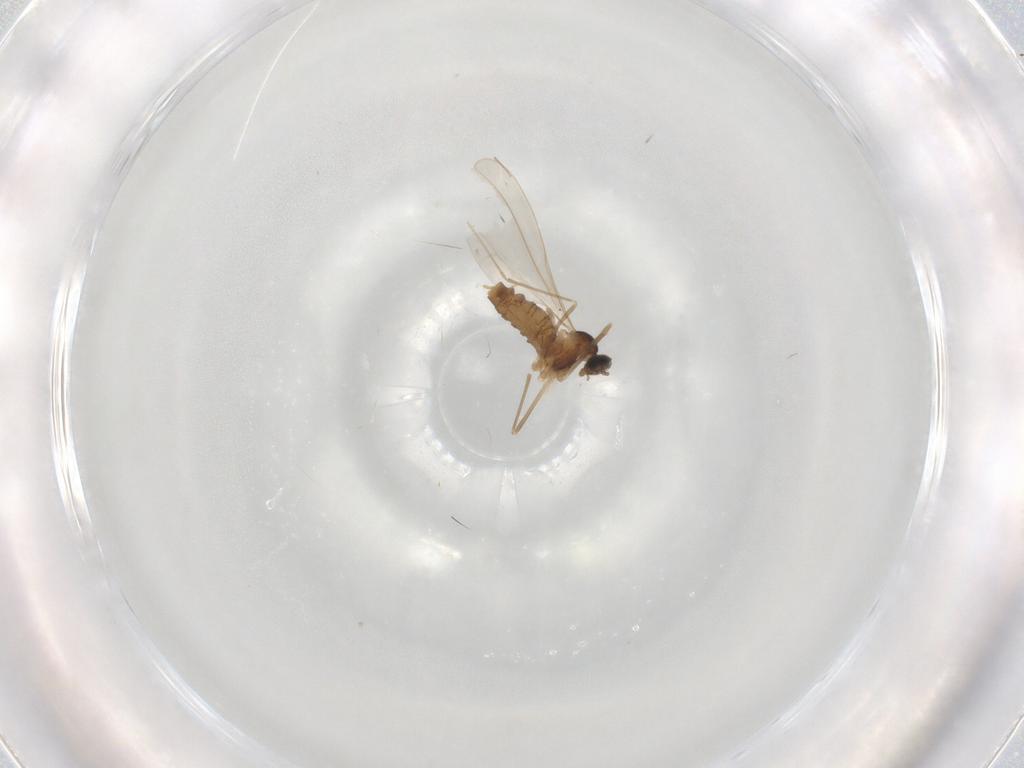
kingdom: Animalia
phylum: Arthropoda
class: Insecta
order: Diptera
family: Cecidomyiidae
